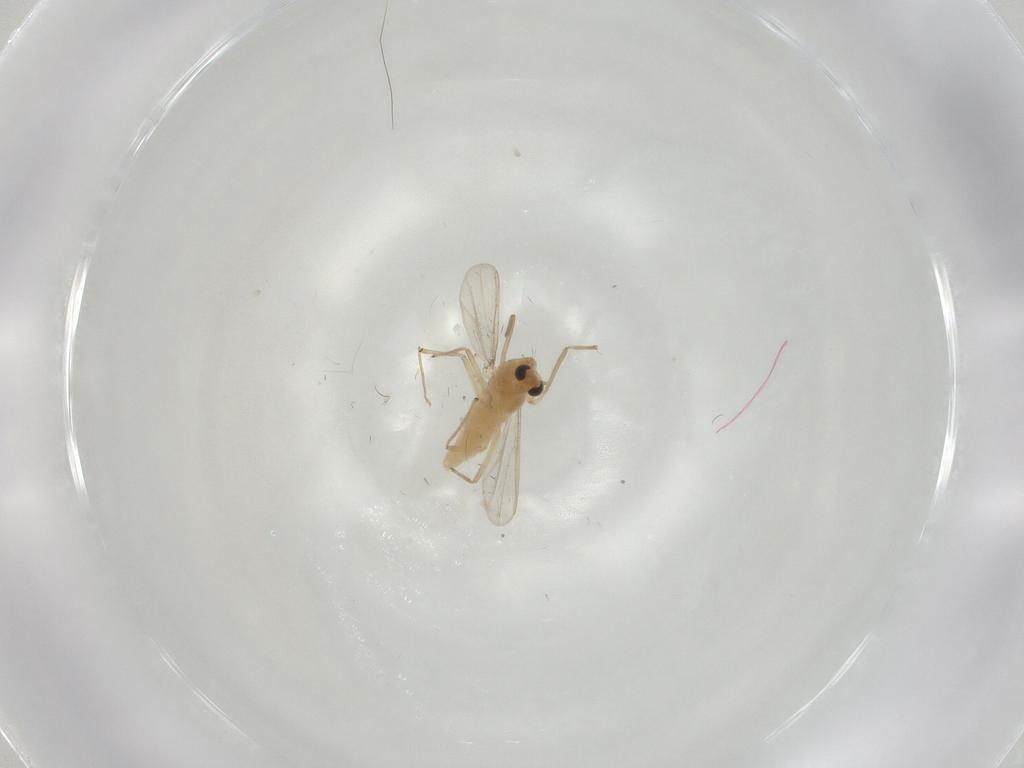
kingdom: Animalia
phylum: Arthropoda
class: Insecta
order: Diptera
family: Chironomidae
